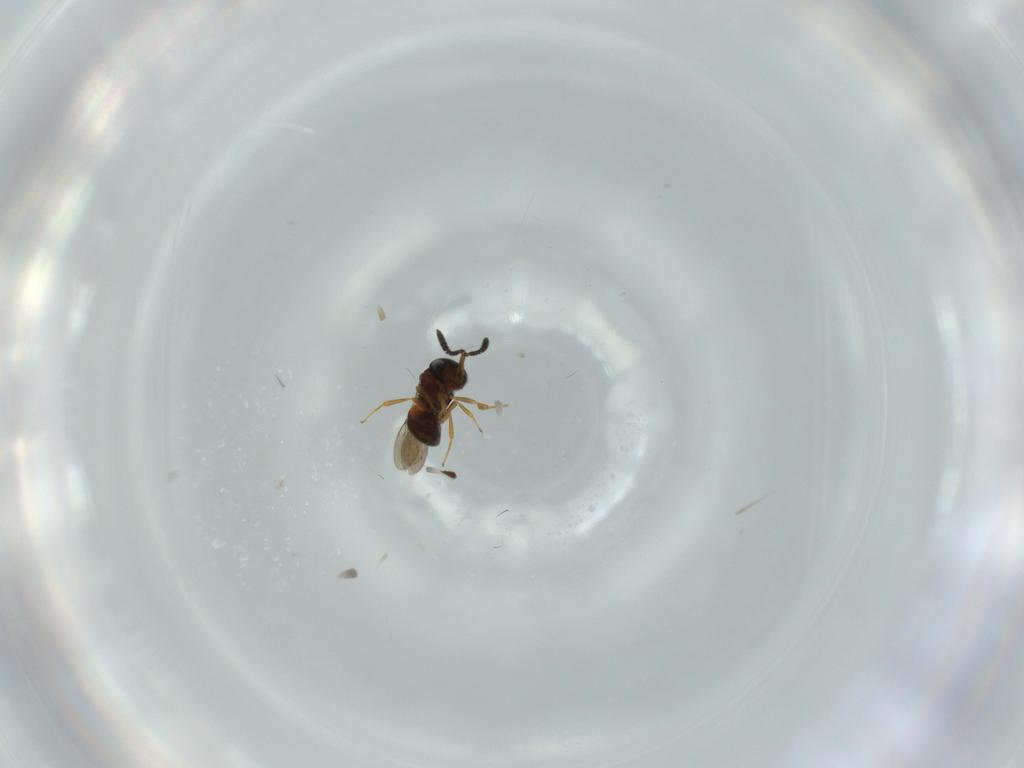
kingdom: Animalia
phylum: Arthropoda
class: Insecta
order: Hymenoptera
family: Scelionidae
